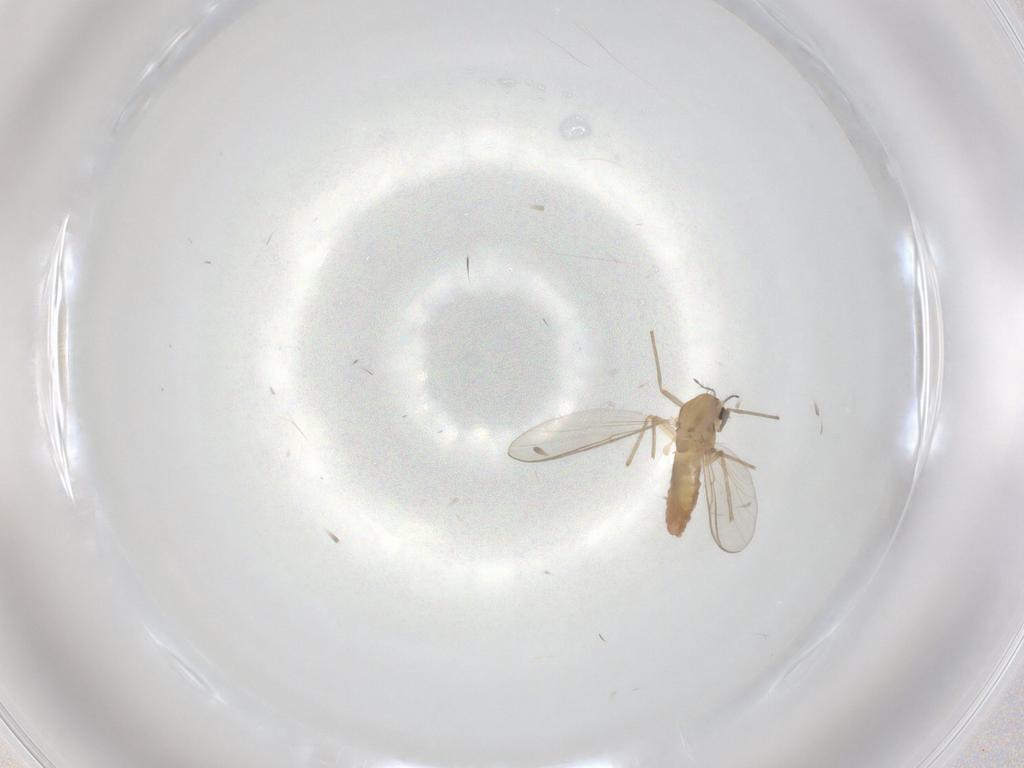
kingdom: Animalia
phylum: Arthropoda
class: Insecta
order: Diptera
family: Chironomidae
